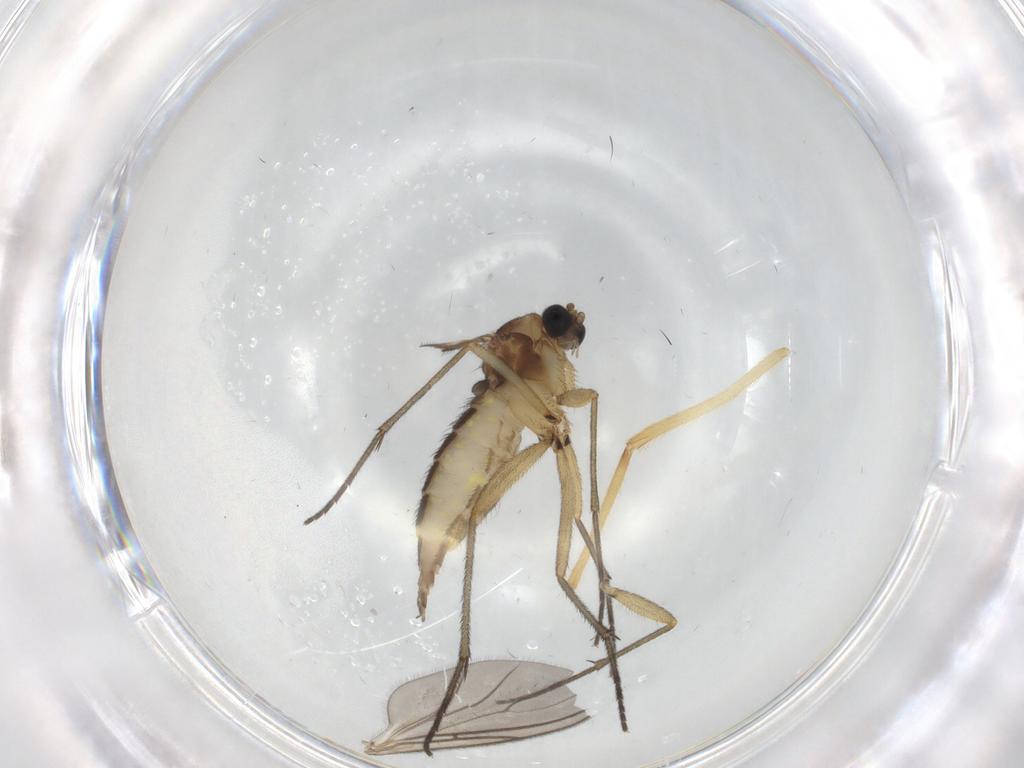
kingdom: Animalia
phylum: Arthropoda
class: Insecta
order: Diptera
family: Sciaridae
